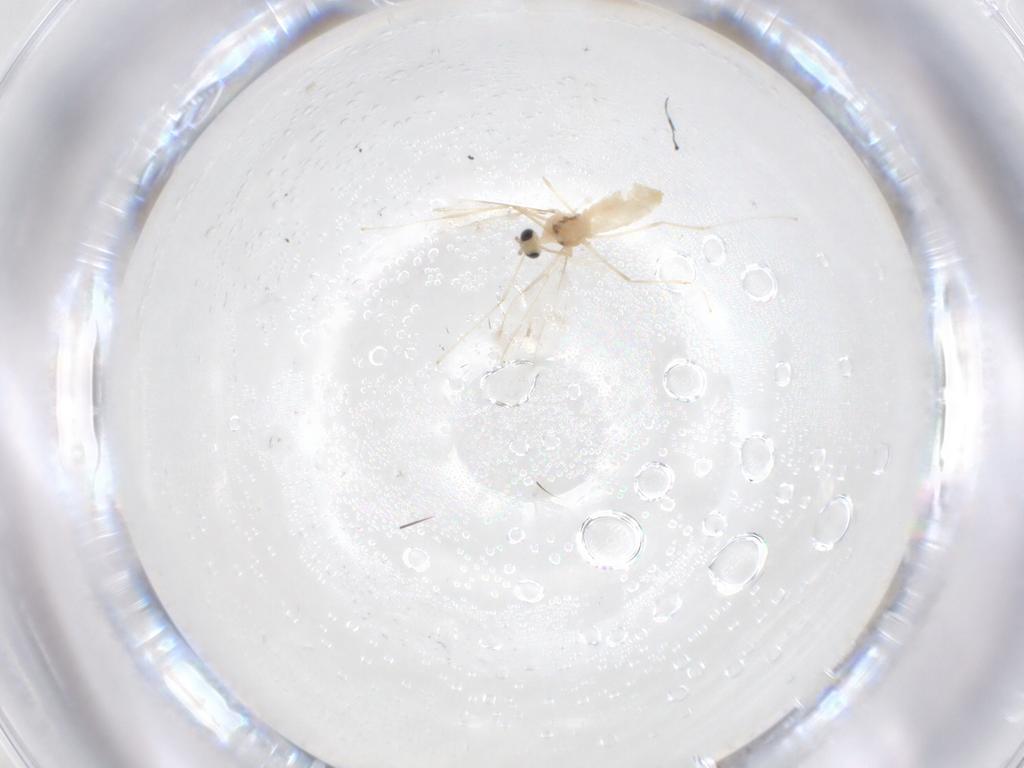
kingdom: Animalia
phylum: Arthropoda
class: Insecta
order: Diptera
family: Cecidomyiidae
